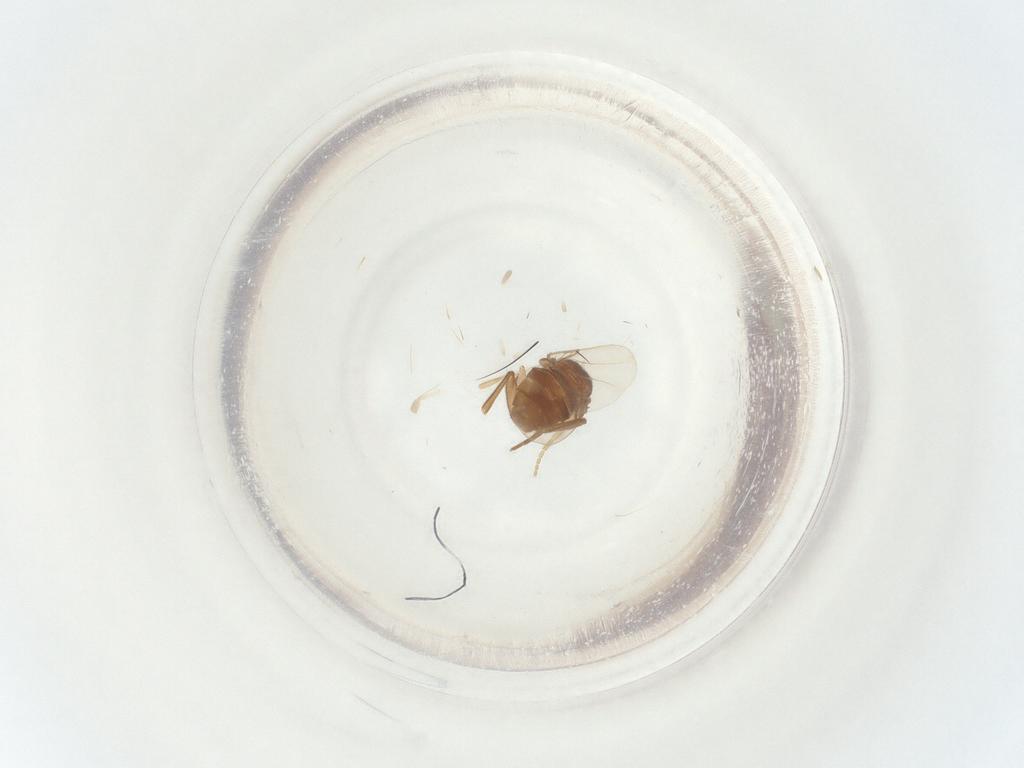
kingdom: Animalia
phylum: Arthropoda
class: Insecta
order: Diptera
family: Phoridae
